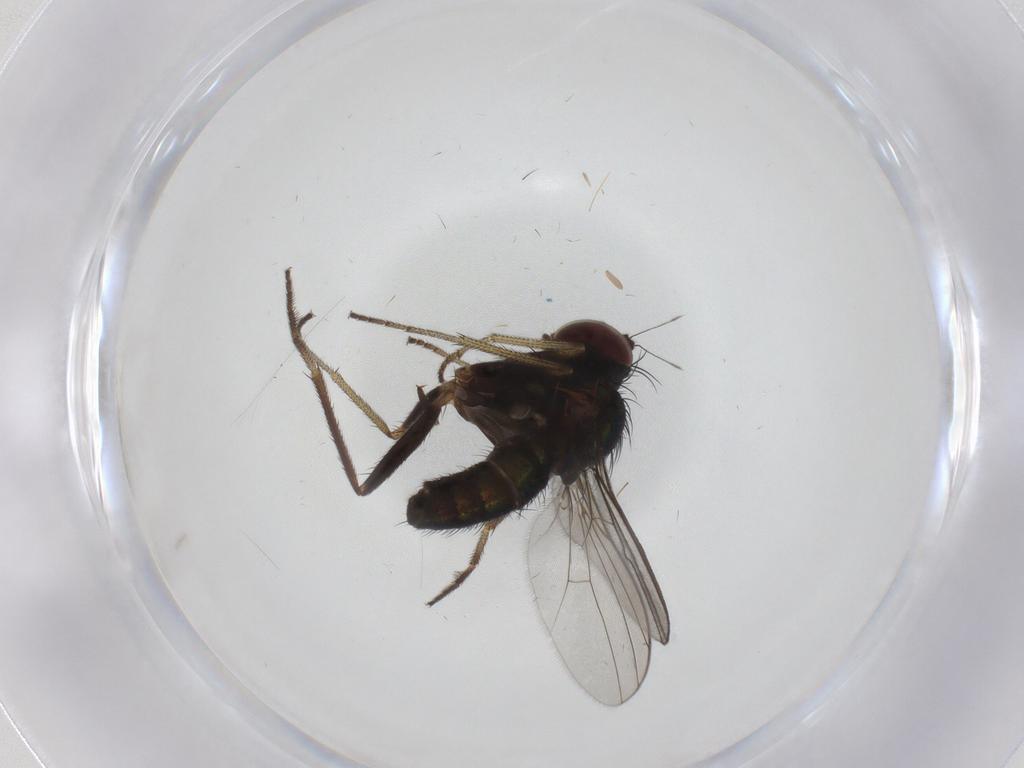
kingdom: Animalia
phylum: Arthropoda
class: Insecta
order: Diptera
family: Dolichopodidae
